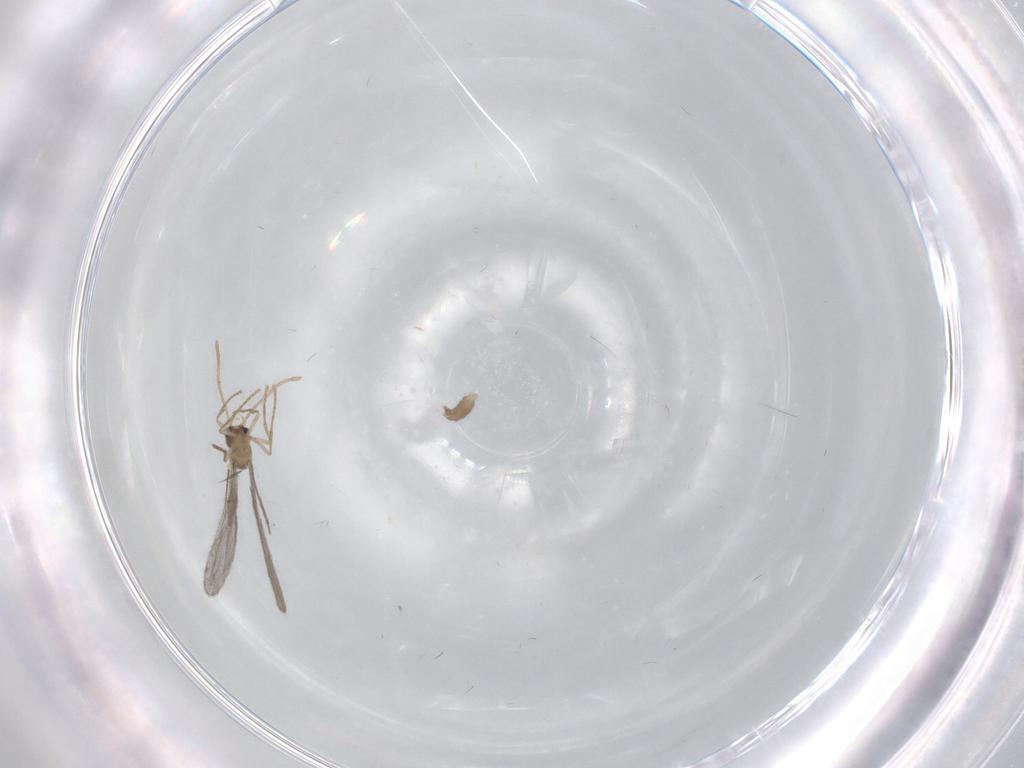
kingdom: Animalia
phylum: Arthropoda
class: Insecta
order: Hymenoptera
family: Formicidae
